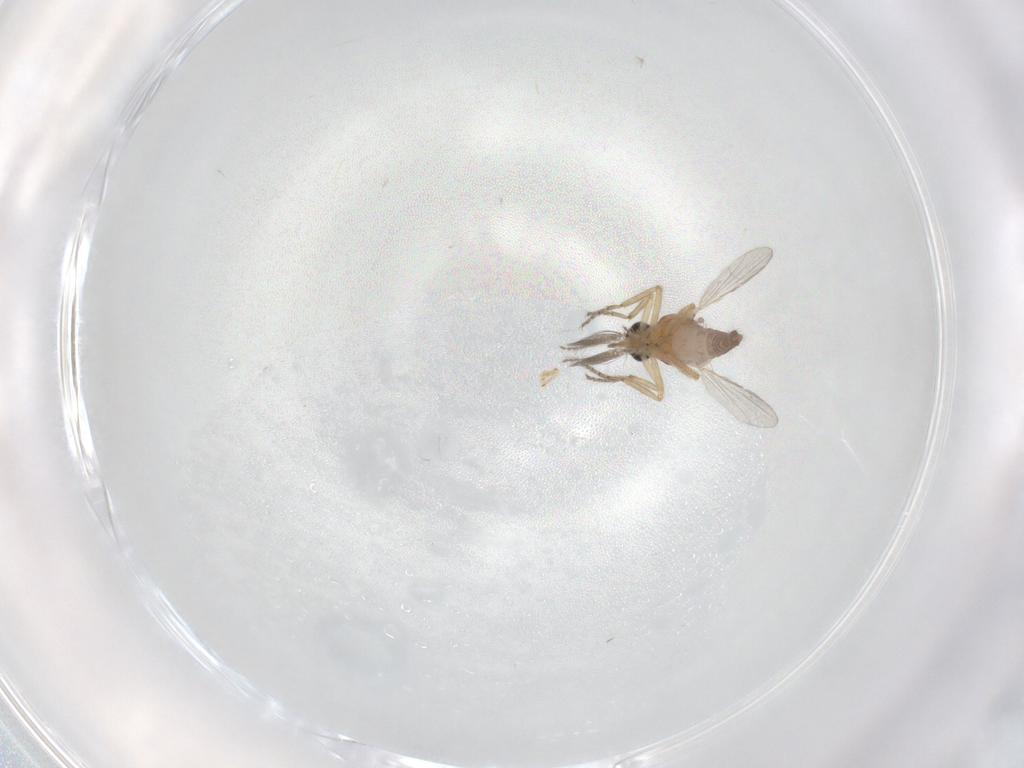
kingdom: Animalia
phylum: Arthropoda
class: Insecta
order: Diptera
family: Ceratopogonidae
